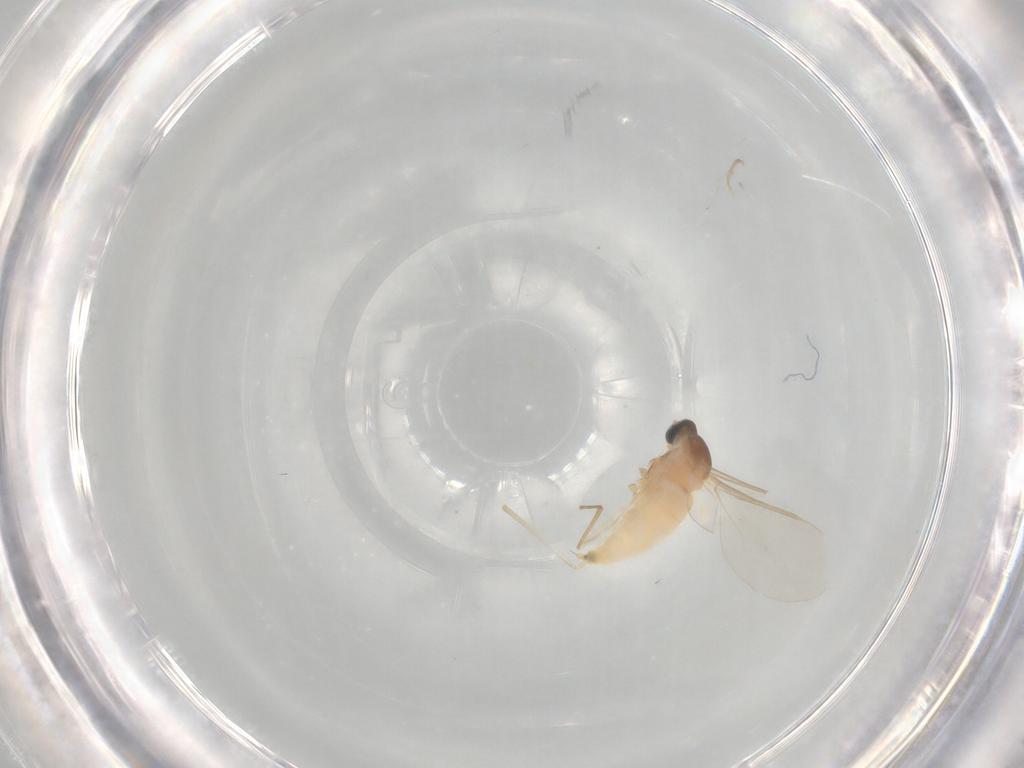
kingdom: Animalia
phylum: Arthropoda
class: Insecta
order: Diptera
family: Cecidomyiidae
